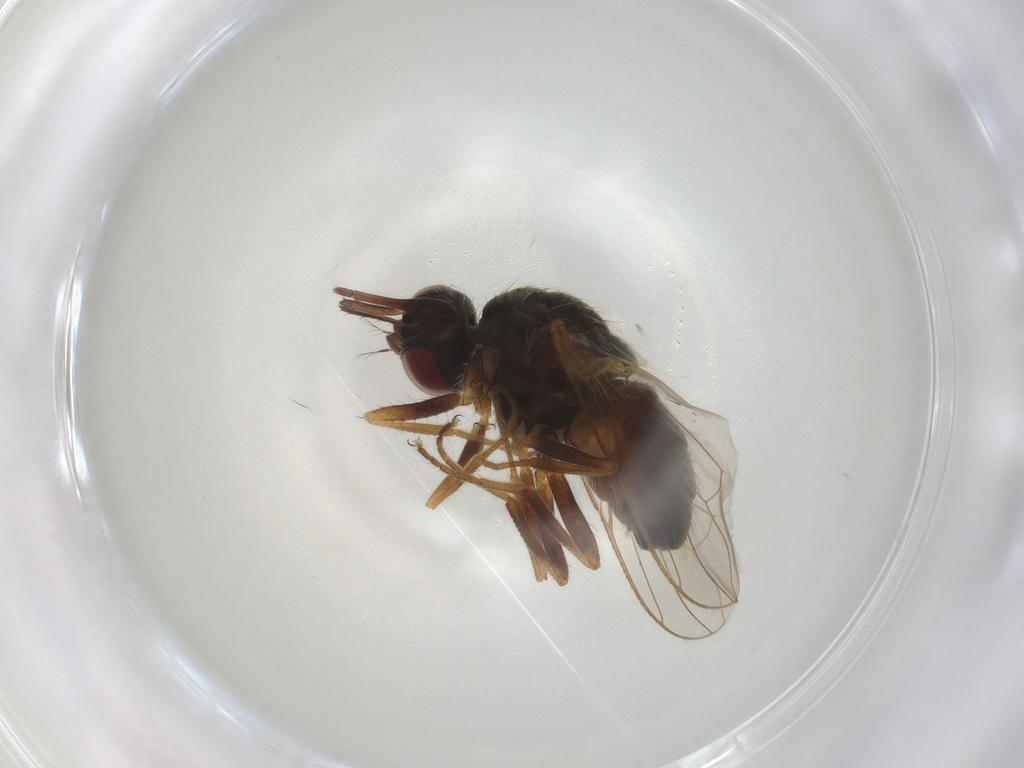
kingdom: Animalia
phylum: Arthropoda
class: Insecta
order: Diptera
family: Muscidae
